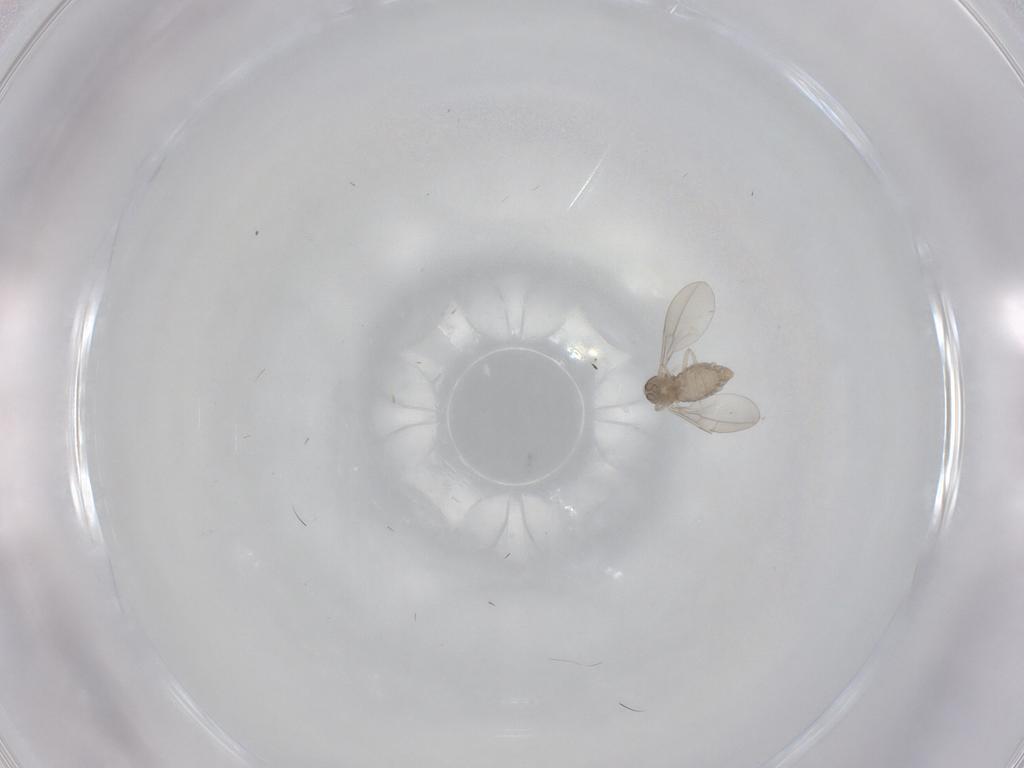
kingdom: Animalia
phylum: Arthropoda
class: Insecta
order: Diptera
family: Cecidomyiidae
